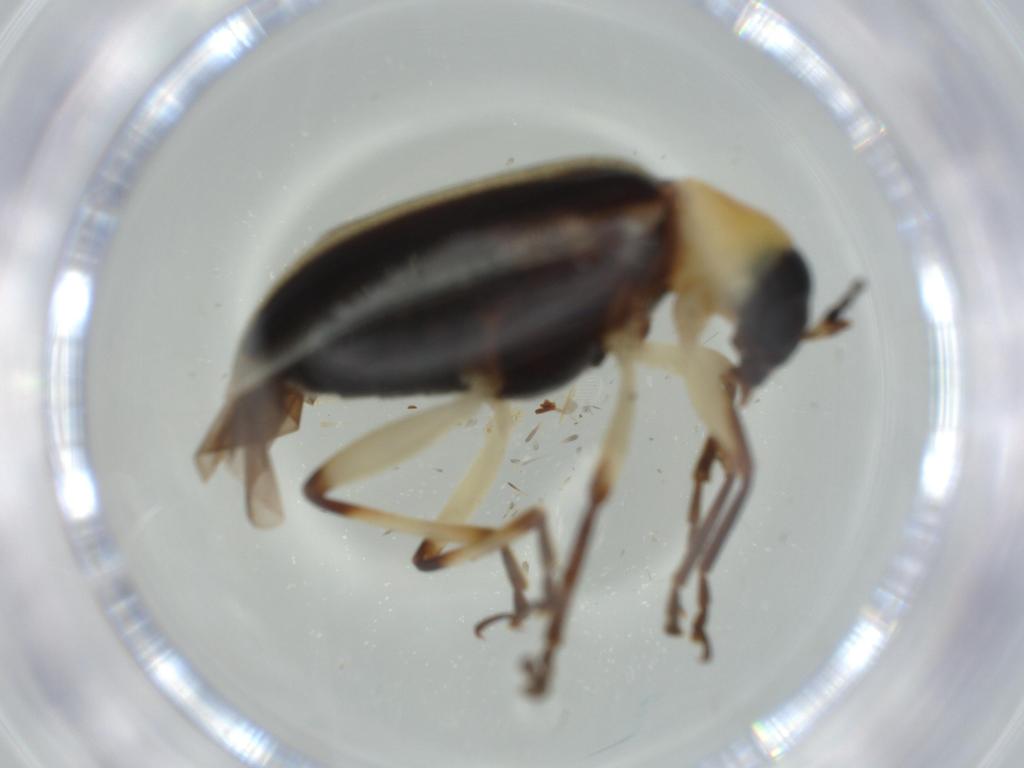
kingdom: Animalia
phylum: Arthropoda
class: Insecta
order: Coleoptera
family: Chrysomelidae
